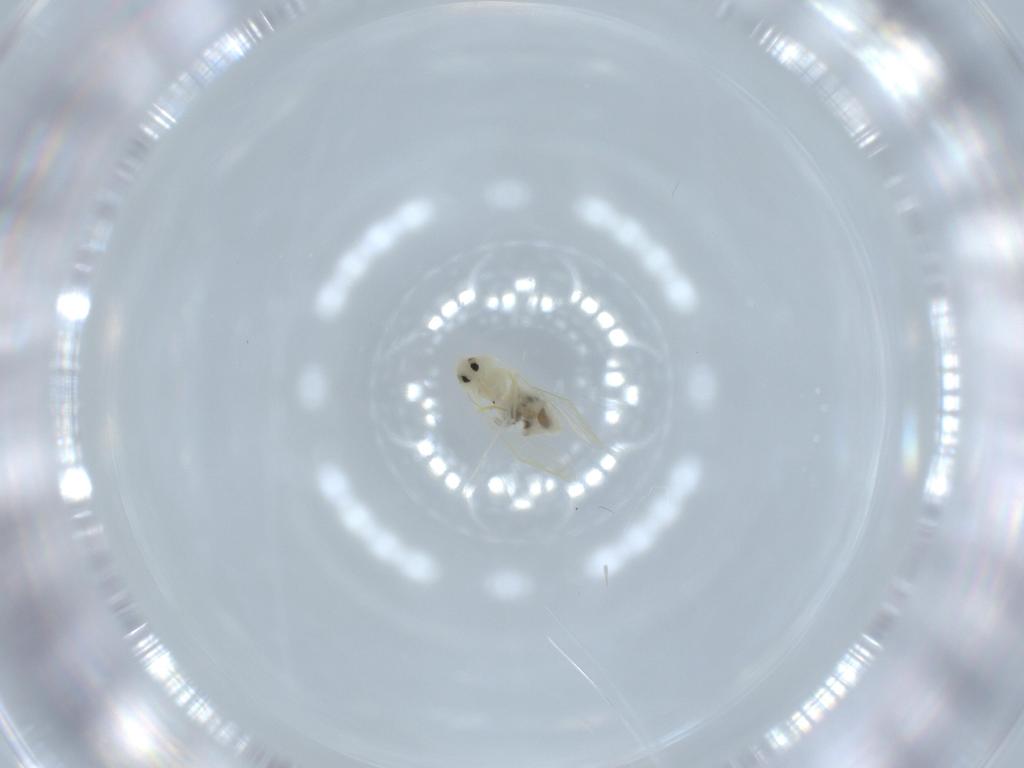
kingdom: Animalia
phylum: Arthropoda
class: Insecta
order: Hemiptera
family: Aleyrodidae
